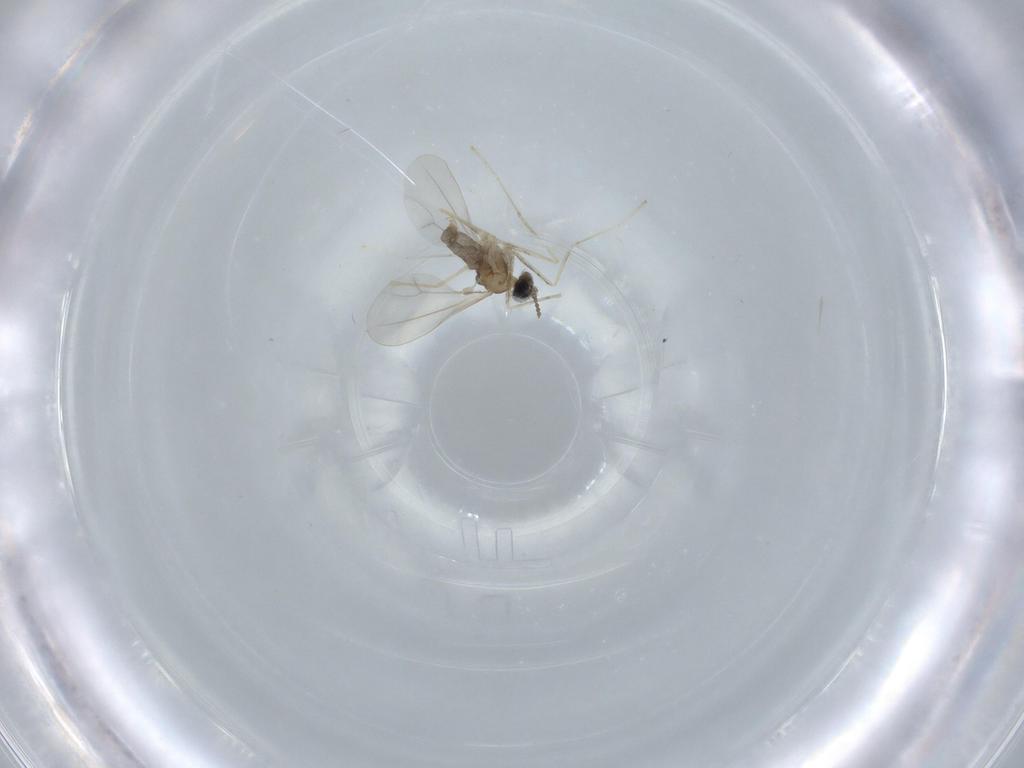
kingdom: Animalia
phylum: Arthropoda
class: Insecta
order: Diptera
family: Cecidomyiidae
